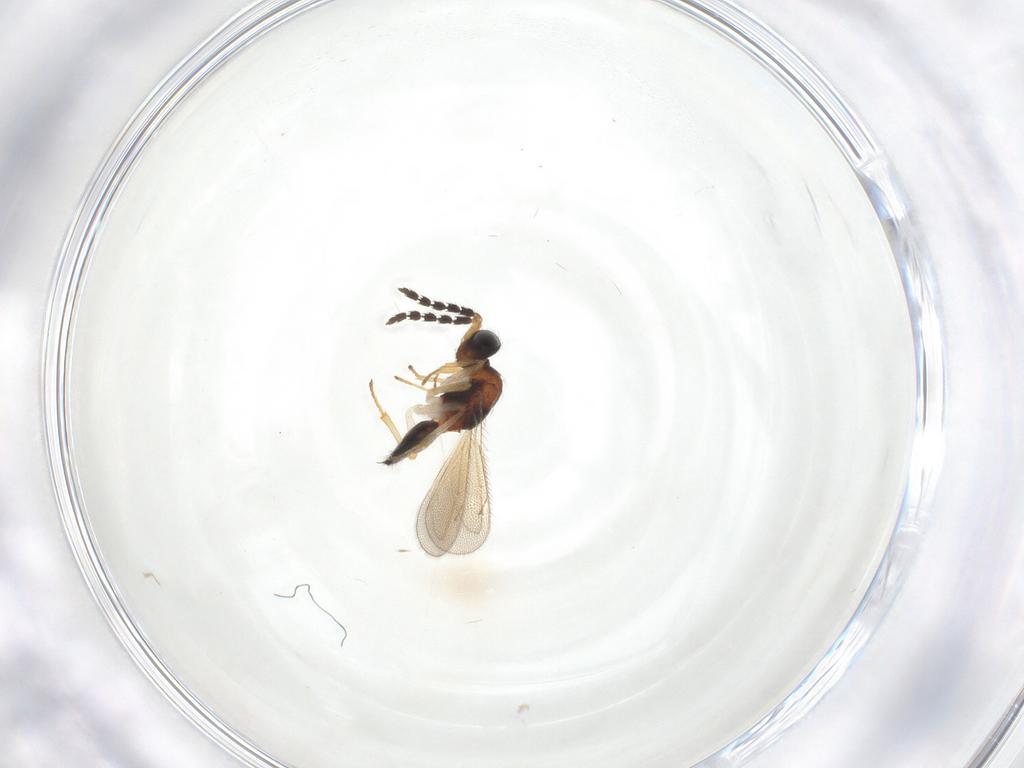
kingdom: Animalia
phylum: Arthropoda
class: Insecta
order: Hymenoptera
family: Eulophidae
